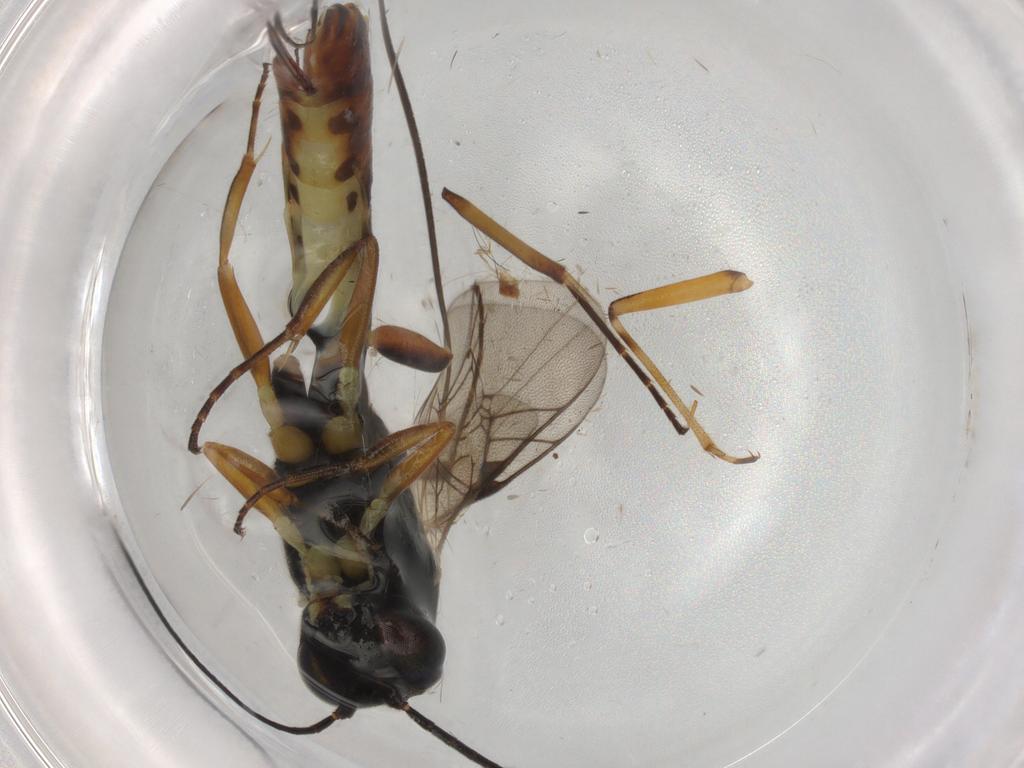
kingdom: Animalia
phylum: Arthropoda
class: Insecta
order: Hymenoptera
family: Ichneumonidae
